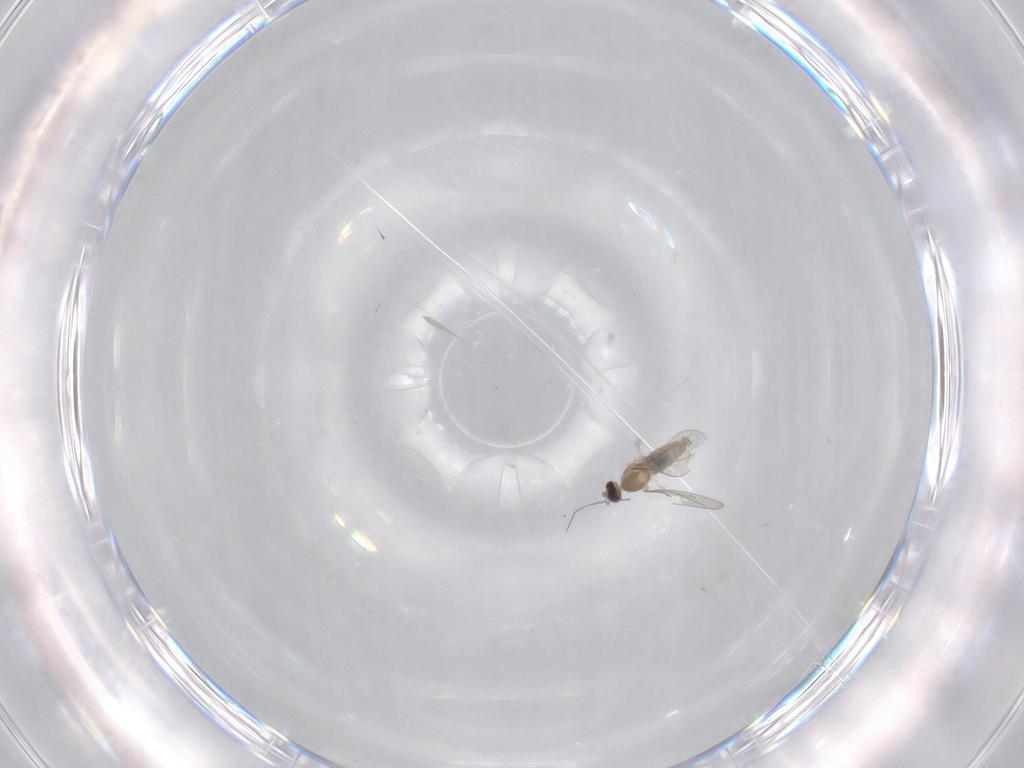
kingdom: Animalia
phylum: Arthropoda
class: Insecta
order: Diptera
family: Cecidomyiidae
